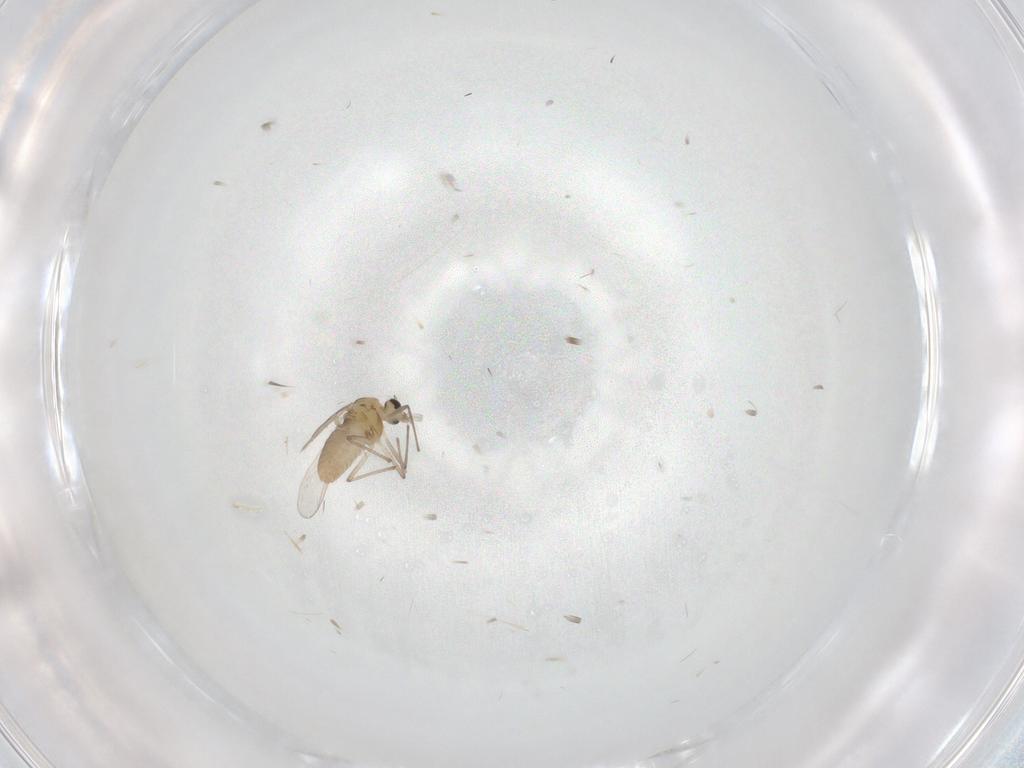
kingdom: Animalia
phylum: Arthropoda
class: Insecta
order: Diptera
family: Chironomidae
